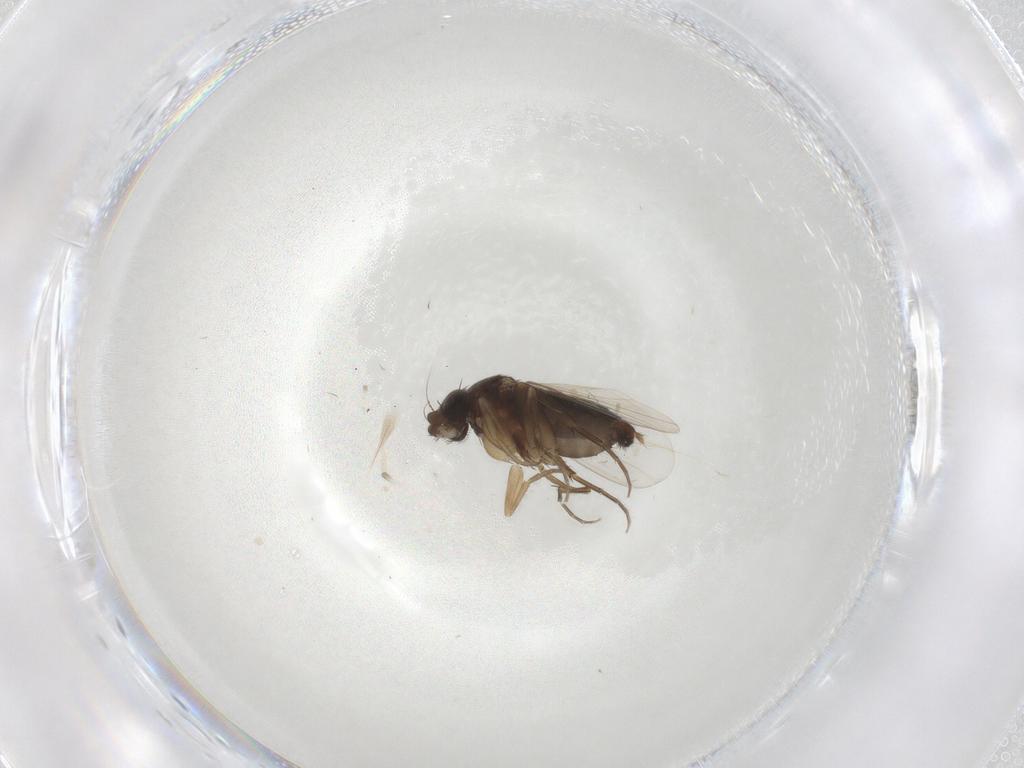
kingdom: Animalia
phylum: Arthropoda
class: Insecta
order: Diptera
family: Phoridae
